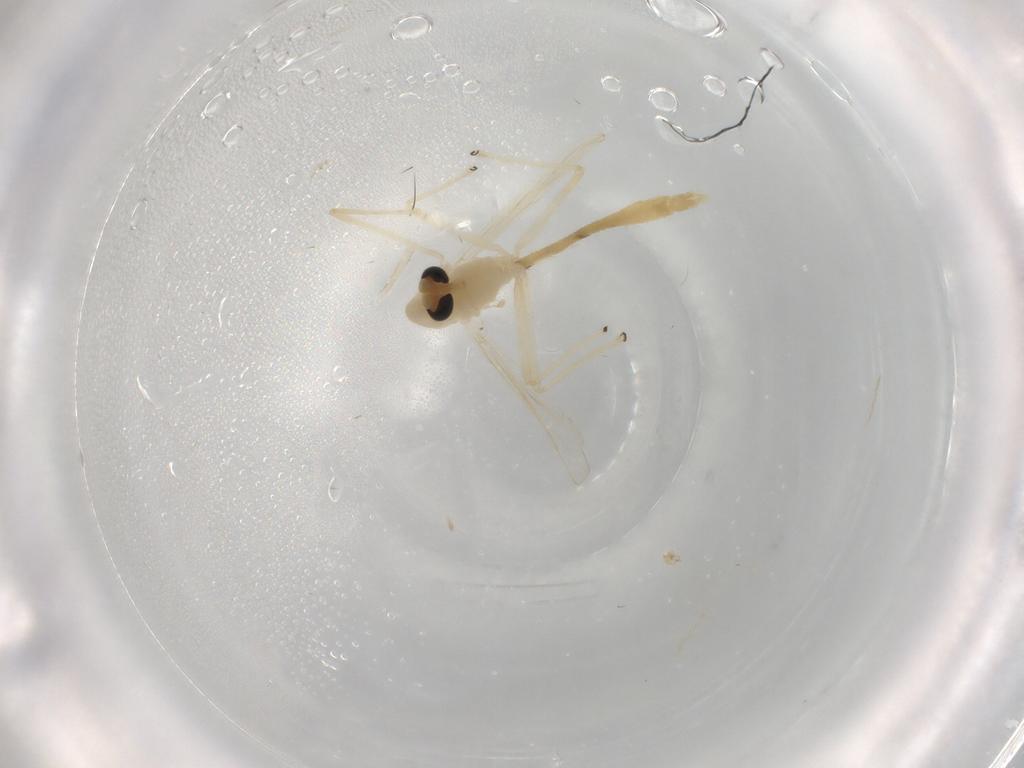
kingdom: Animalia
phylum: Arthropoda
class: Insecta
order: Diptera
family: Chironomidae
